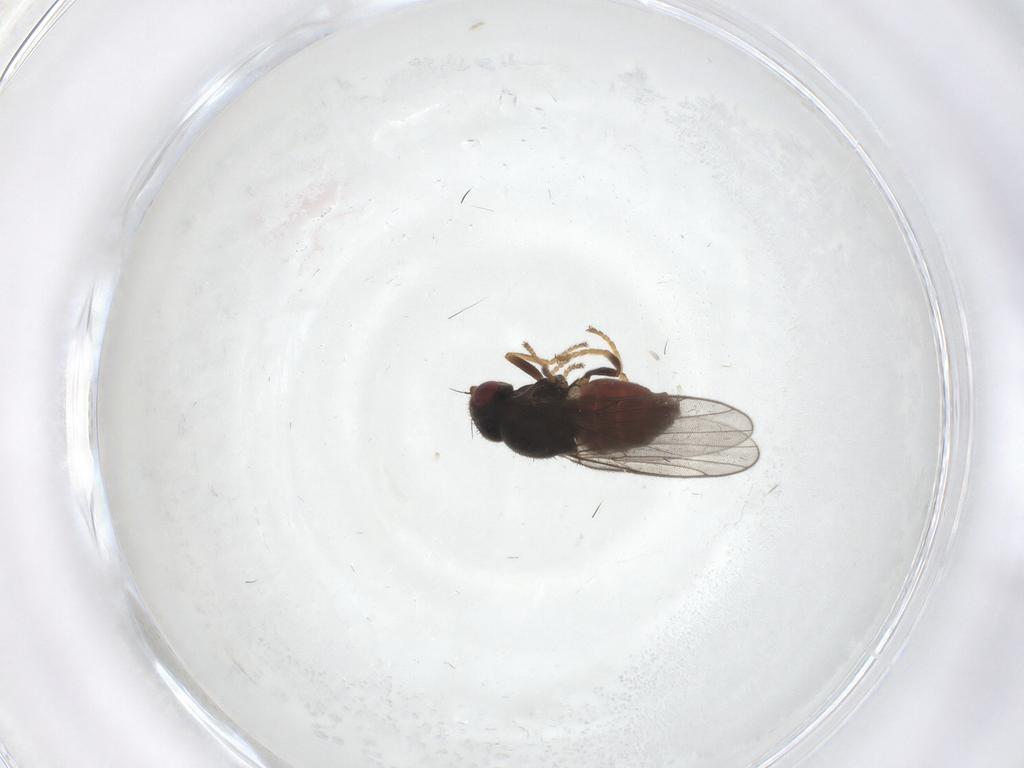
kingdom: Animalia
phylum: Arthropoda
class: Insecta
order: Diptera
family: Chloropidae
